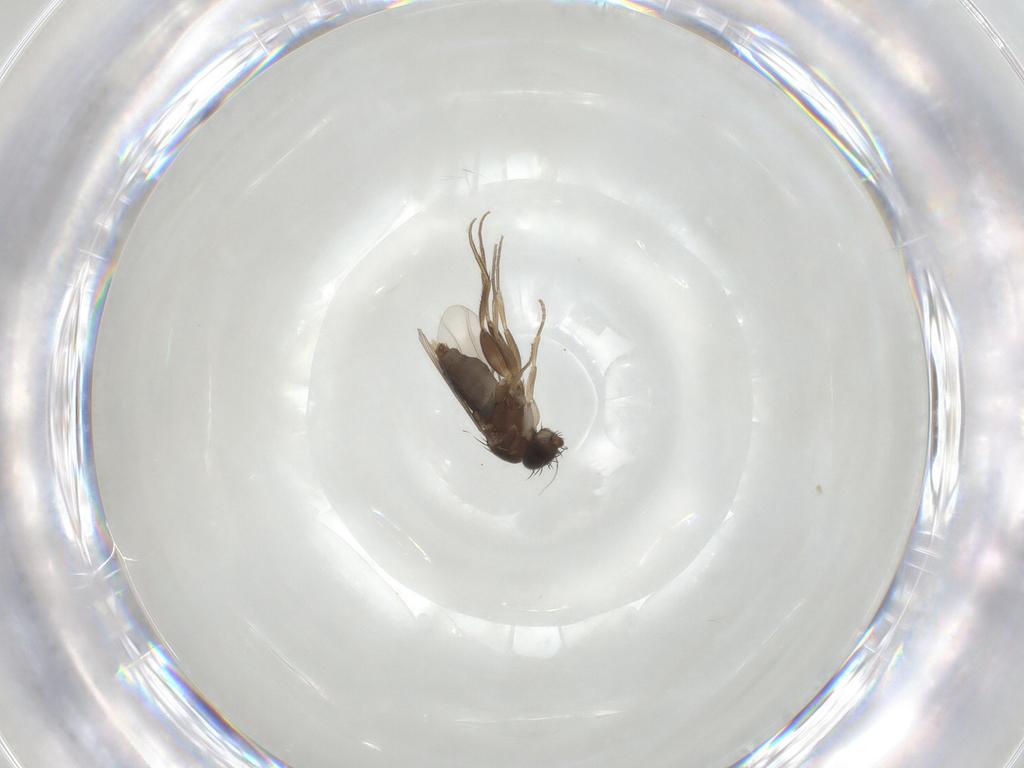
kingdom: Animalia
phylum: Arthropoda
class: Insecta
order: Diptera
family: Phoridae
